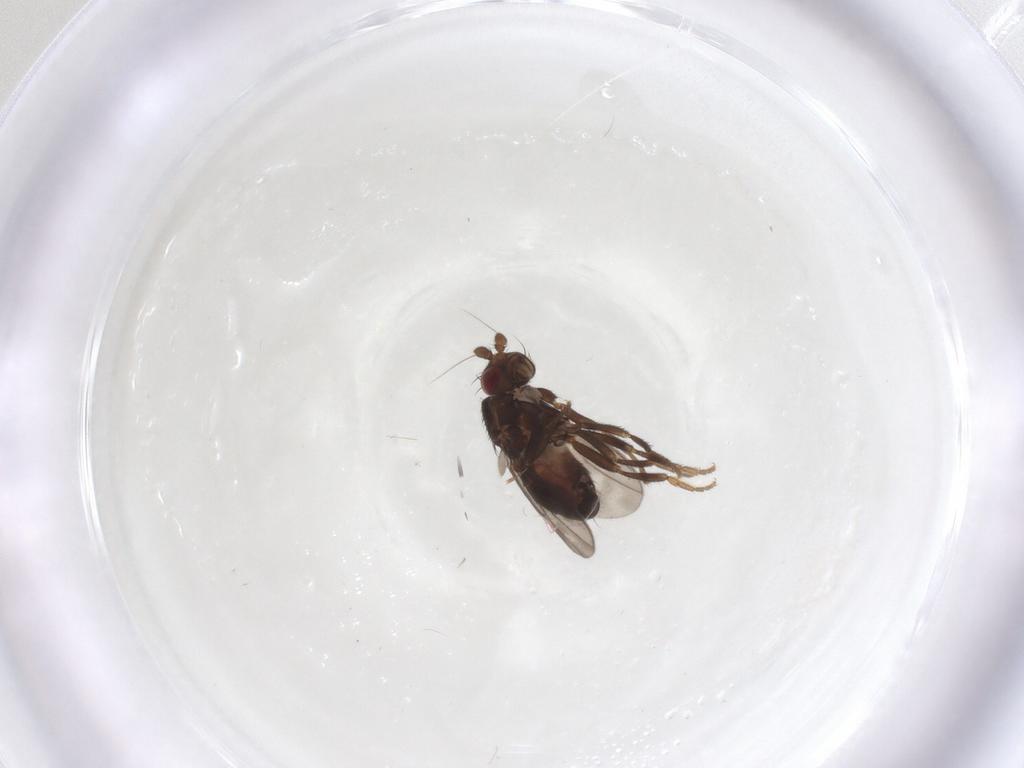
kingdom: Animalia
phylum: Arthropoda
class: Insecta
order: Diptera
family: Sphaeroceridae
